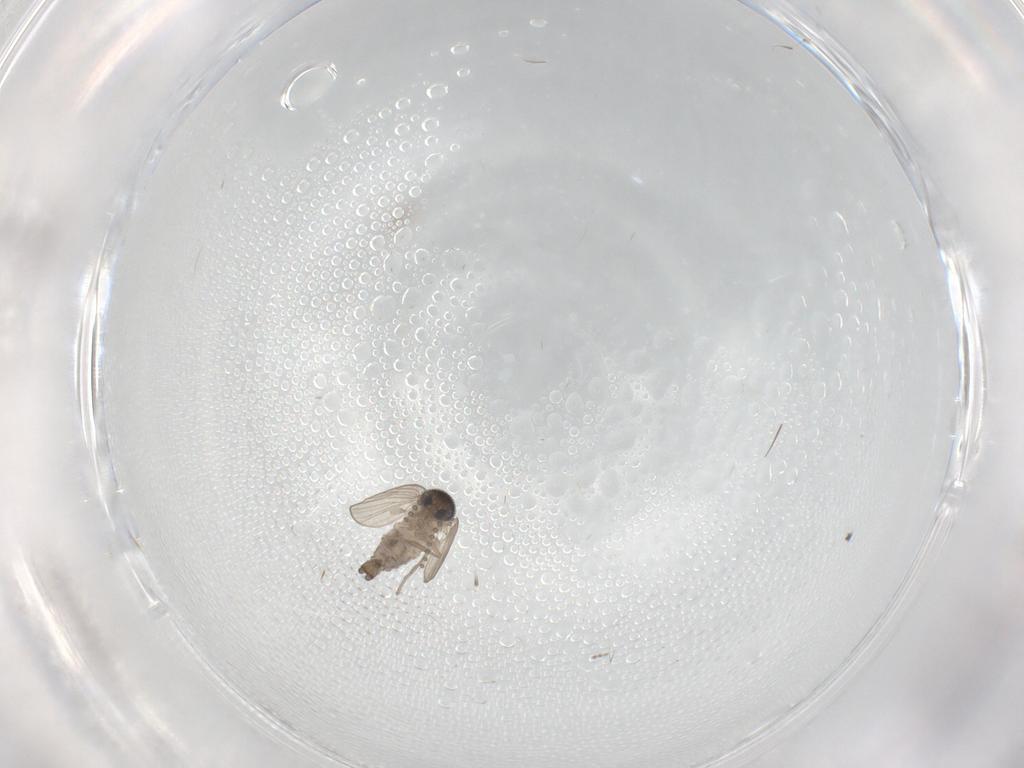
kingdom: Animalia
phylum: Arthropoda
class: Insecta
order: Diptera
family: Psychodidae
